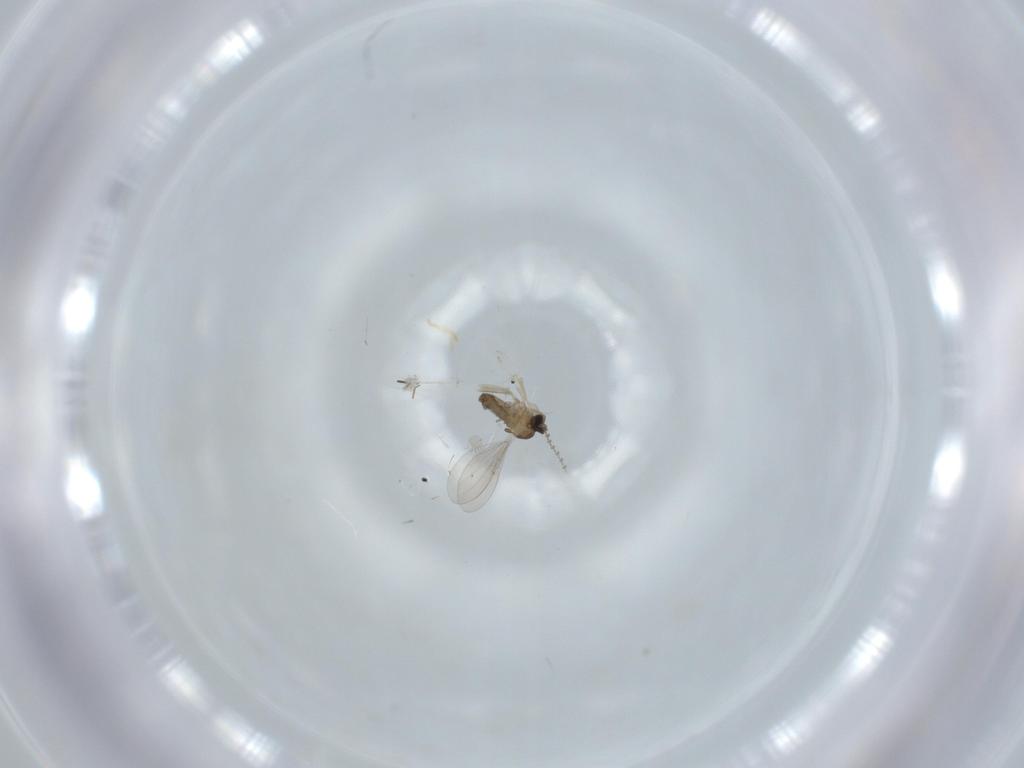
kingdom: Animalia
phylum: Arthropoda
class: Insecta
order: Diptera
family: Cecidomyiidae
